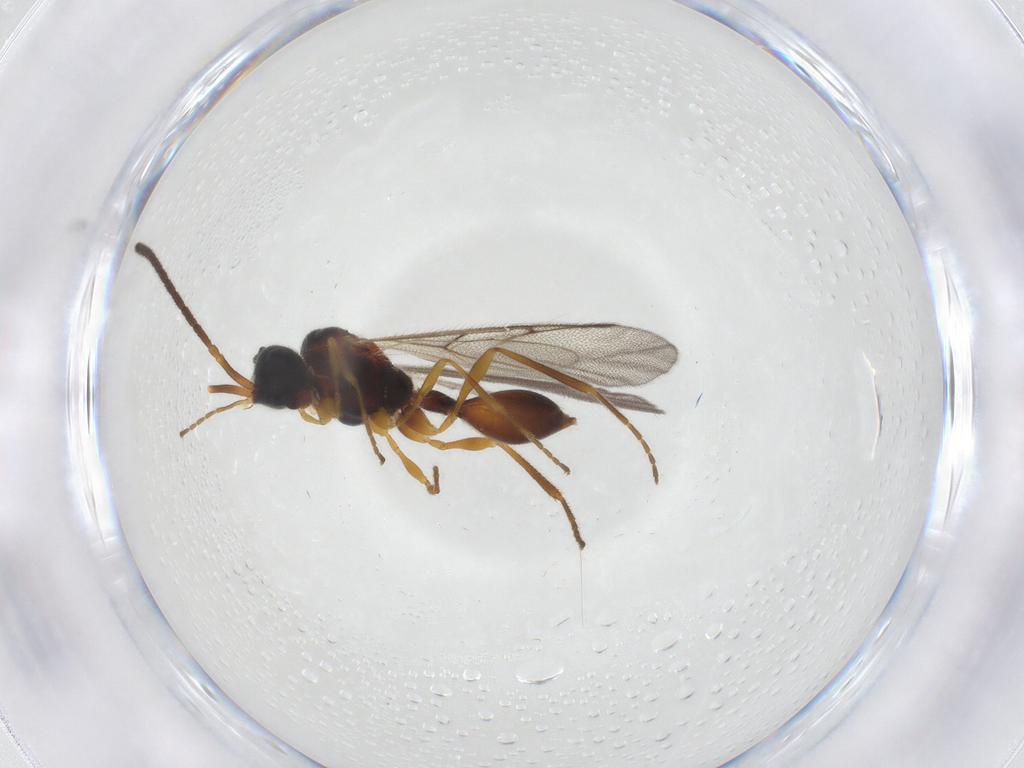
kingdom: Animalia
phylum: Arthropoda
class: Insecta
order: Hymenoptera
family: Diapriidae
